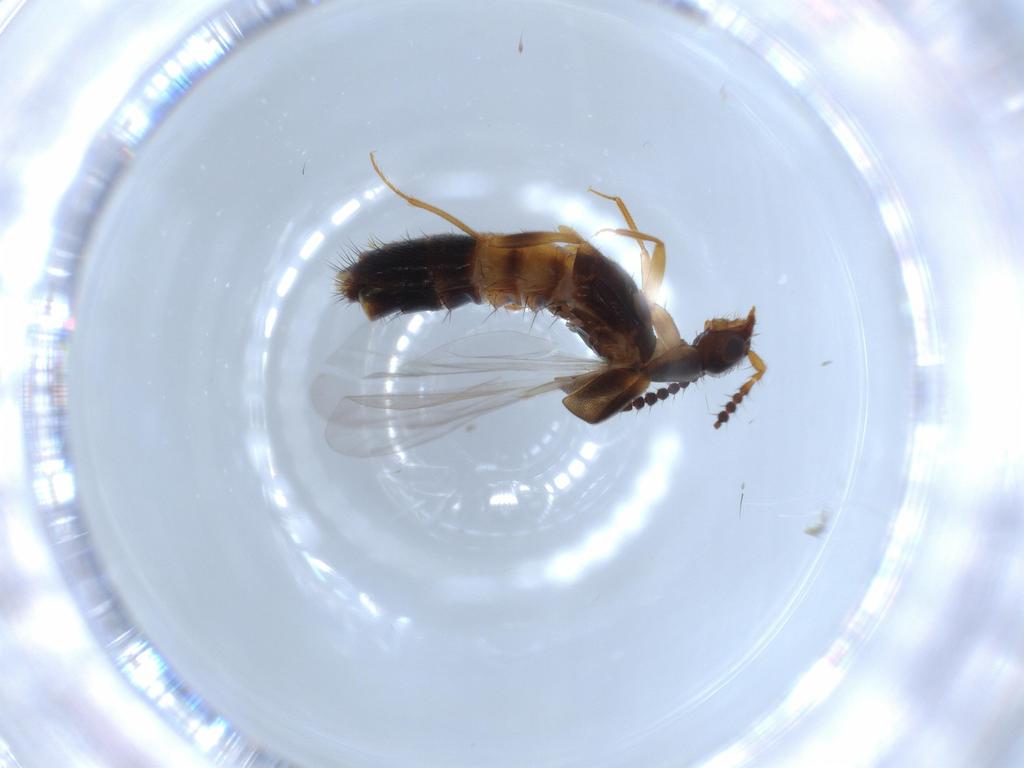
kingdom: Animalia
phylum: Arthropoda
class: Insecta
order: Coleoptera
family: Staphylinidae
